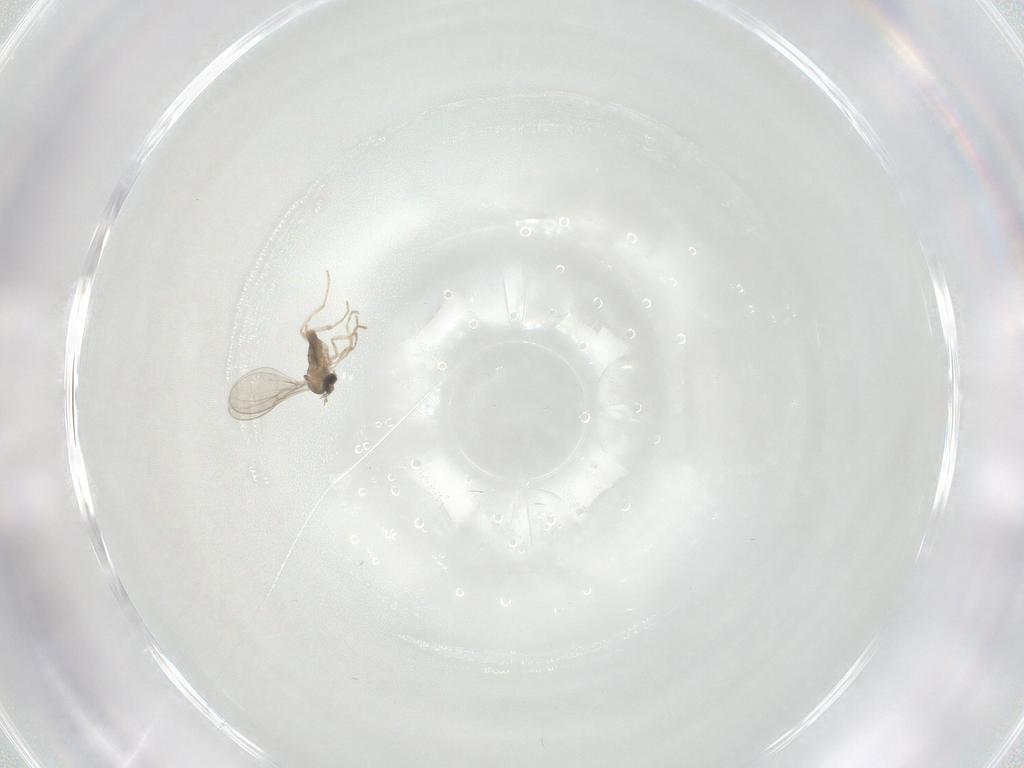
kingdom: Animalia
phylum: Arthropoda
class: Insecta
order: Diptera
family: Cecidomyiidae
